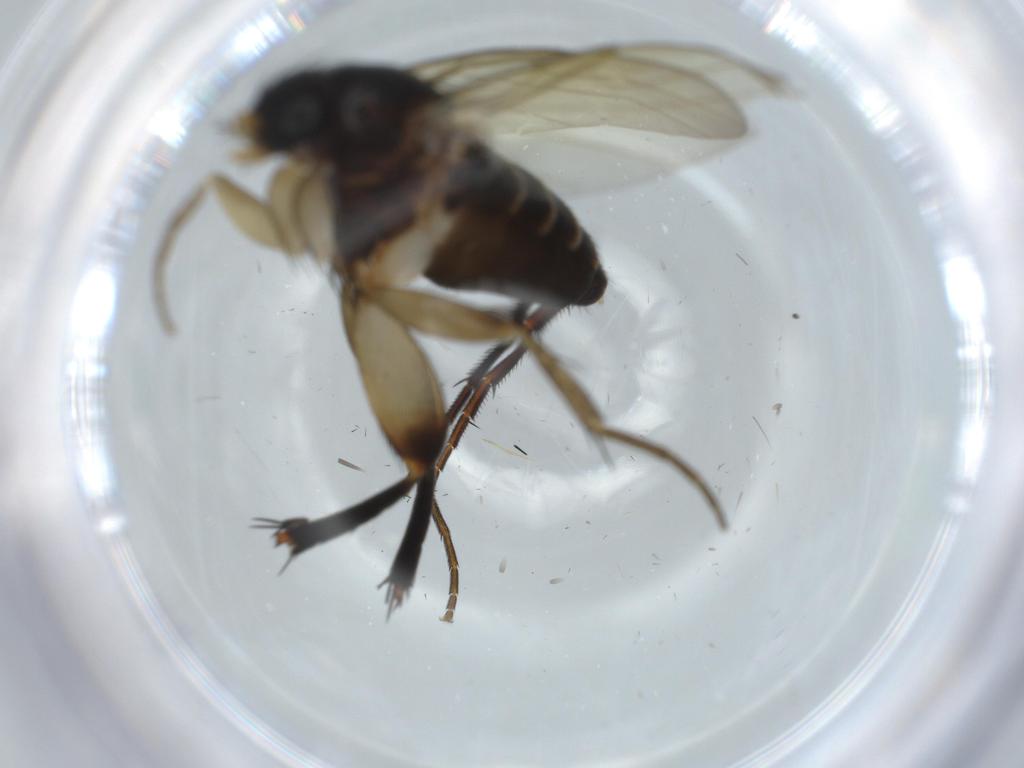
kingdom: Animalia
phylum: Arthropoda
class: Insecta
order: Diptera
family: Phoridae
